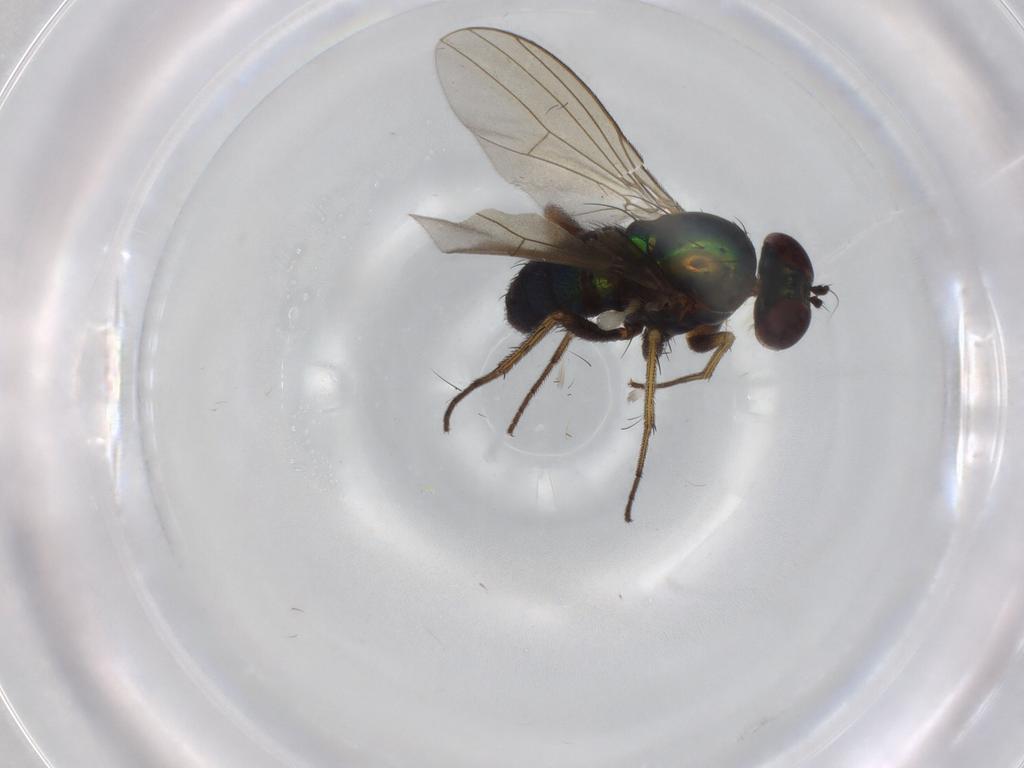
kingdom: Animalia
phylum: Arthropoda
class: Insecta
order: Diptera
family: Dolichopodidae
